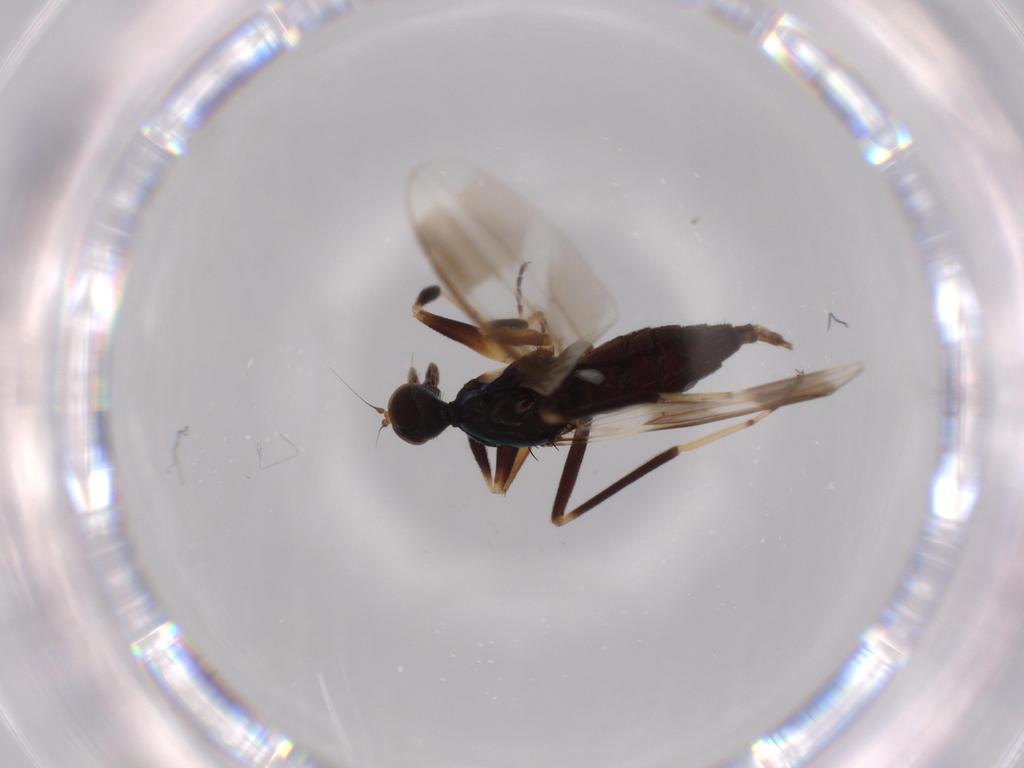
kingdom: Animalia
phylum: Arthropoda
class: Insecta
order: Diptera
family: Hybotidae
